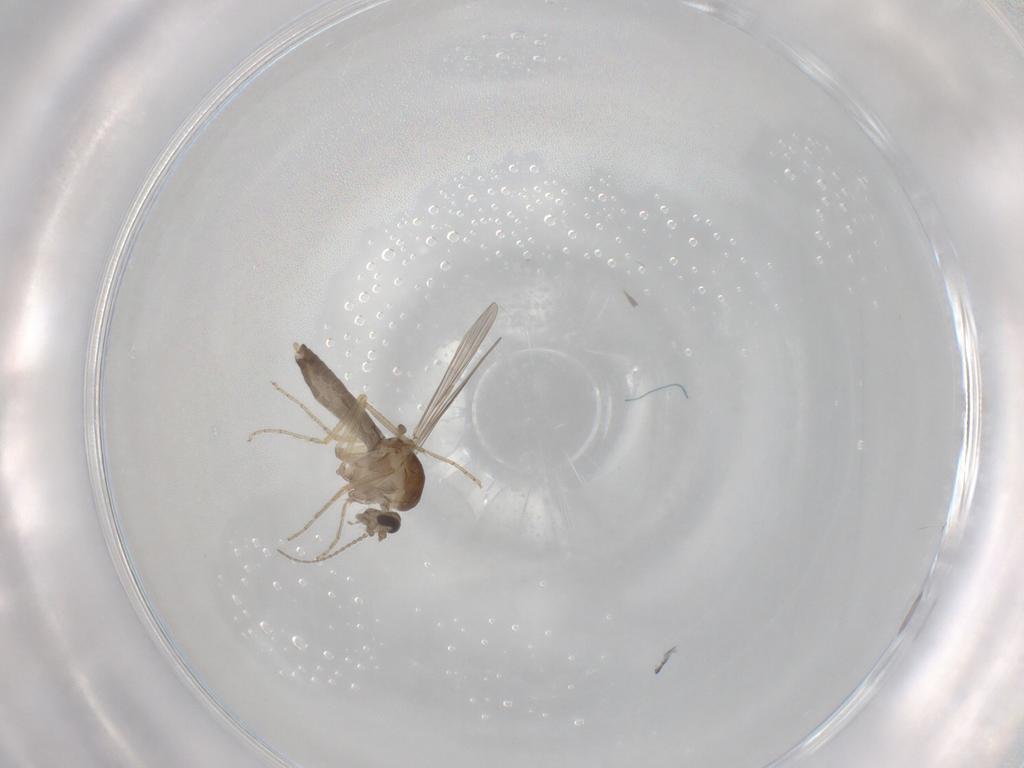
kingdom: Animalia
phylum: Arthropoda
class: Insecta
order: Diptera
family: Ceratopogonidae
